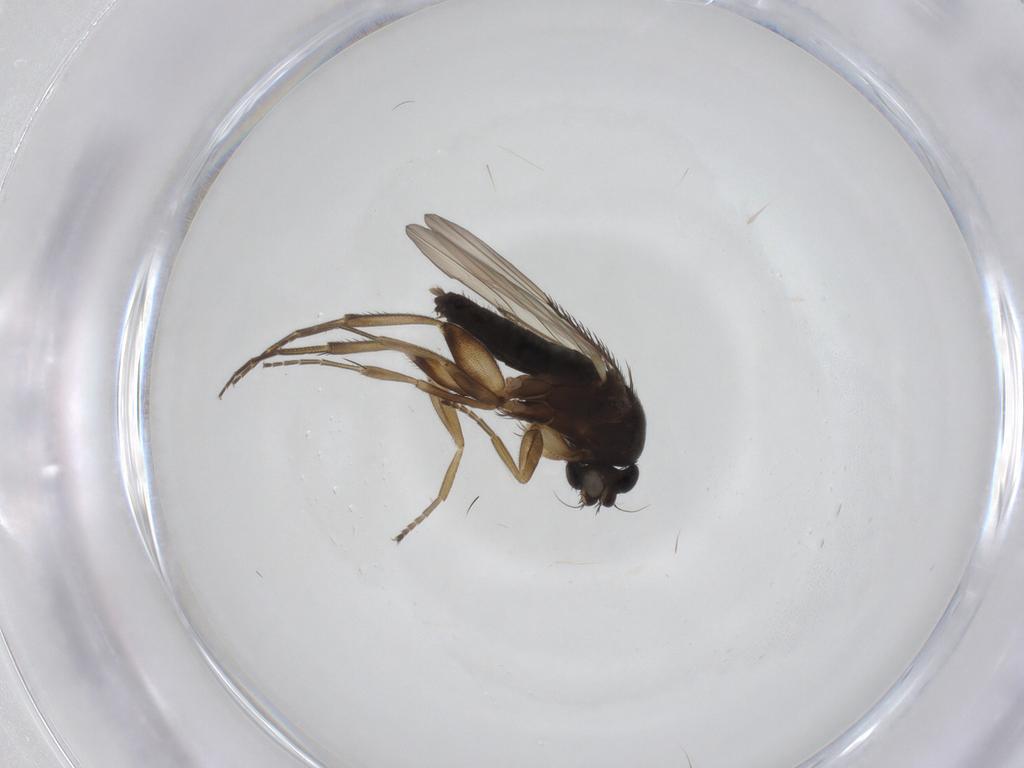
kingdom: Animalia
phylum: Arthropoda
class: Insecta
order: Diptera
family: Phoridae
